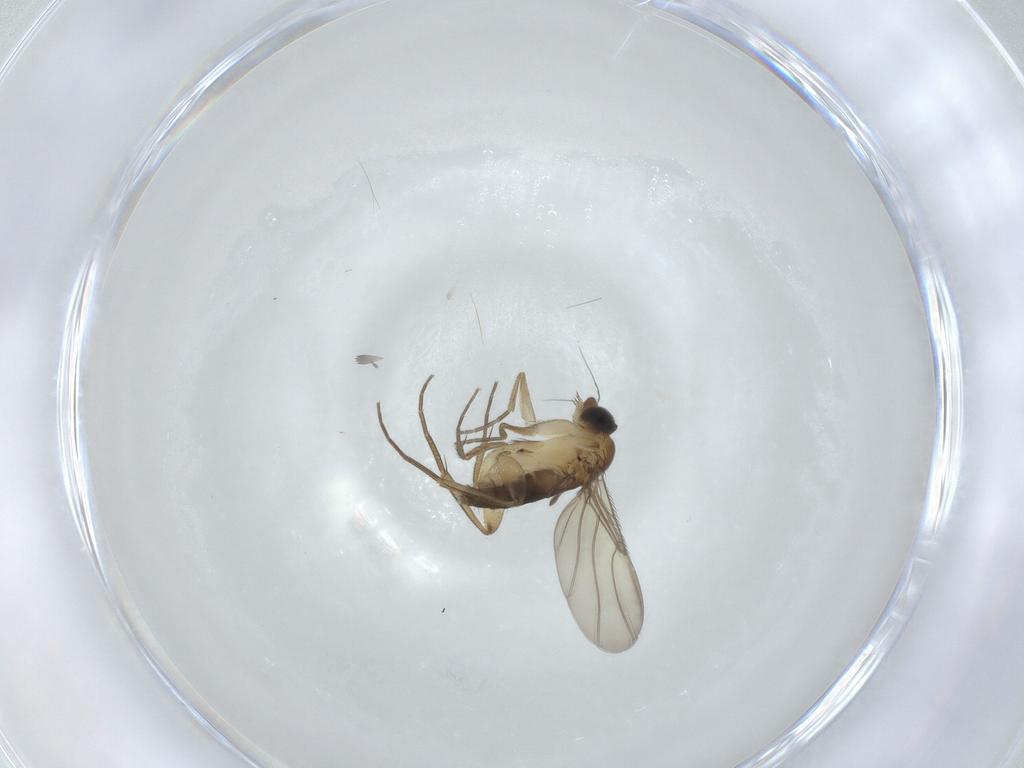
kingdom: Animalia
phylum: Arthropoda
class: Insecta
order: Diptera
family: Phoridae
